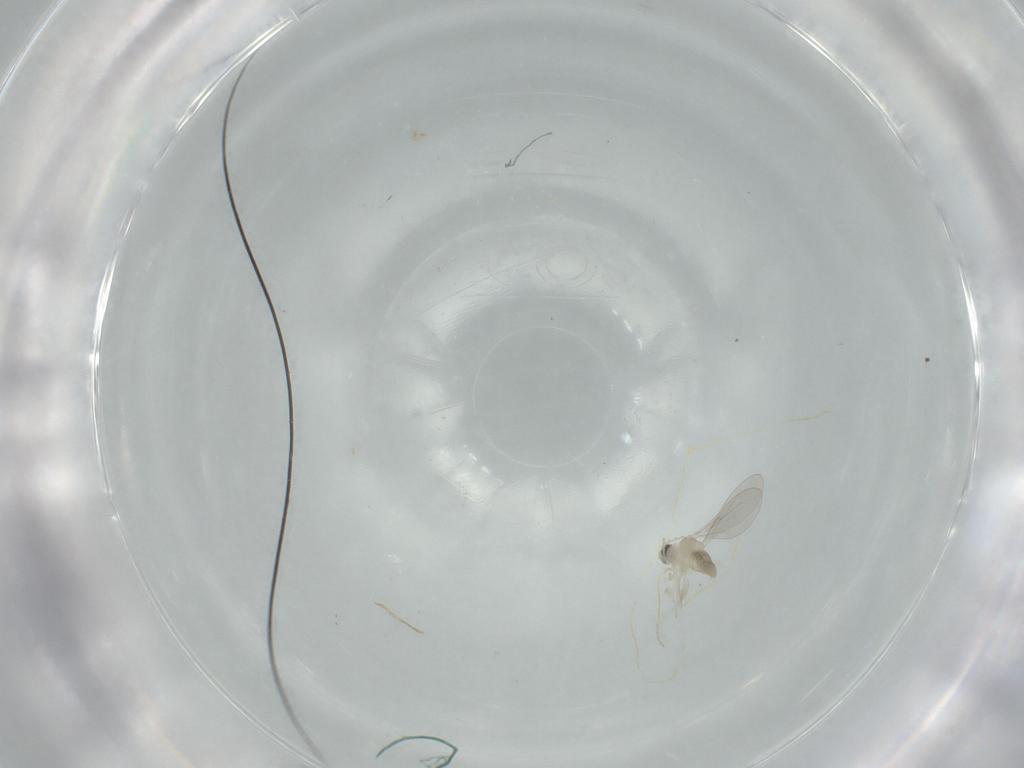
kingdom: Animalia
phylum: Arthropoda
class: Insecta
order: Diptera
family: Cecidomyiidae
